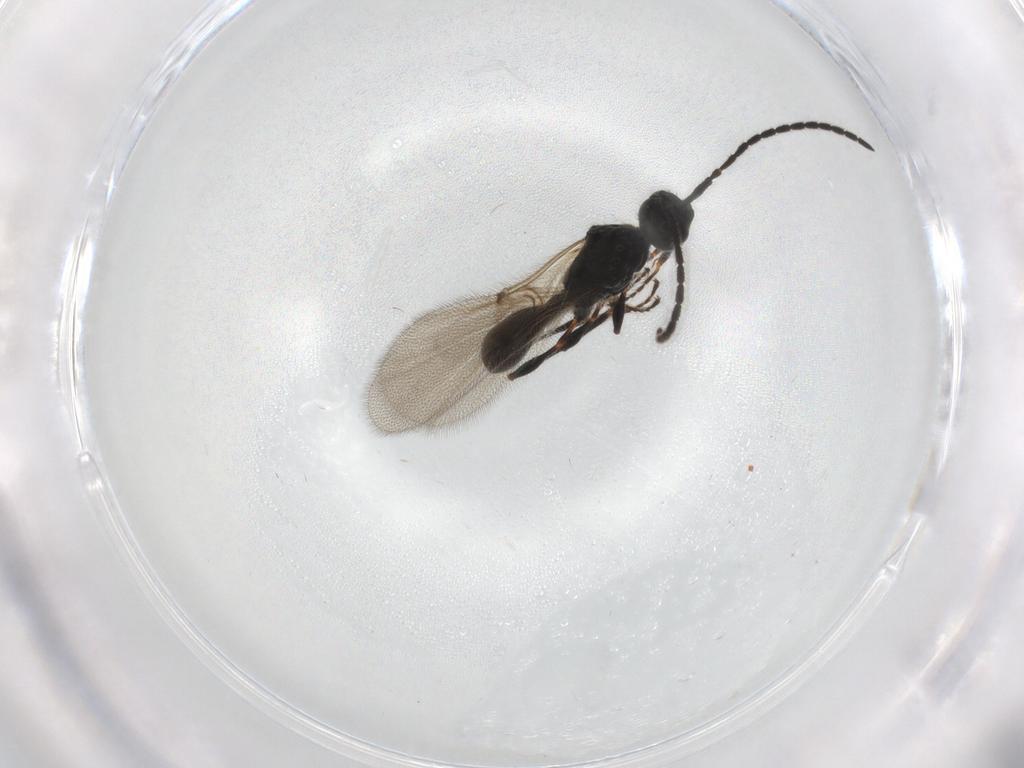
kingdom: Animalia
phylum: Arthropoda
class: Insecta
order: Hymenoptera
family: Diapriidae
